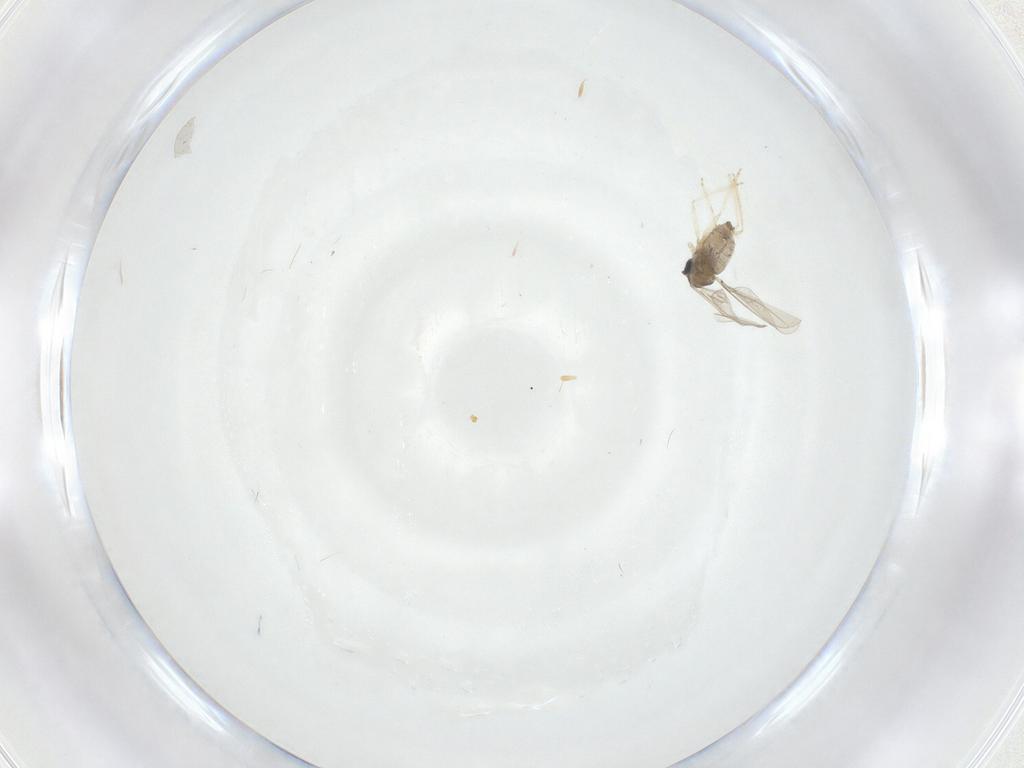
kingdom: Animalia
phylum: Arthropoda
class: Insecta
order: Diptera
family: Cecidomyiidae
